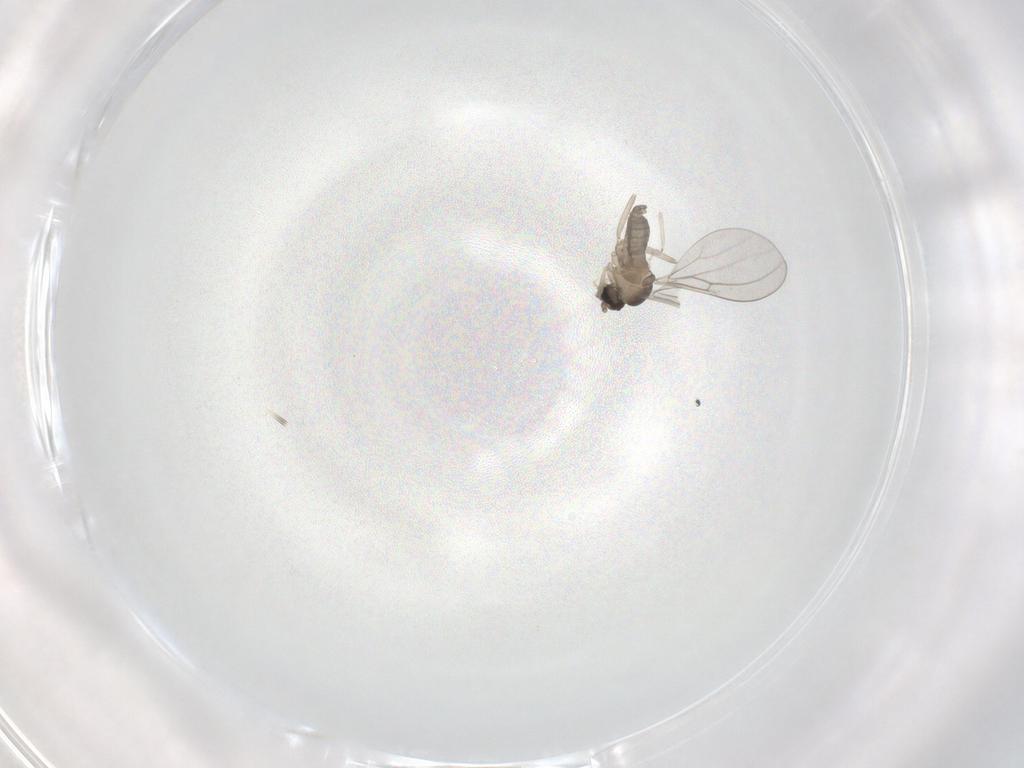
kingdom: Animalia
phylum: Arthropoda
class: Insecta
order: Diptera
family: Cecidomyiidae
